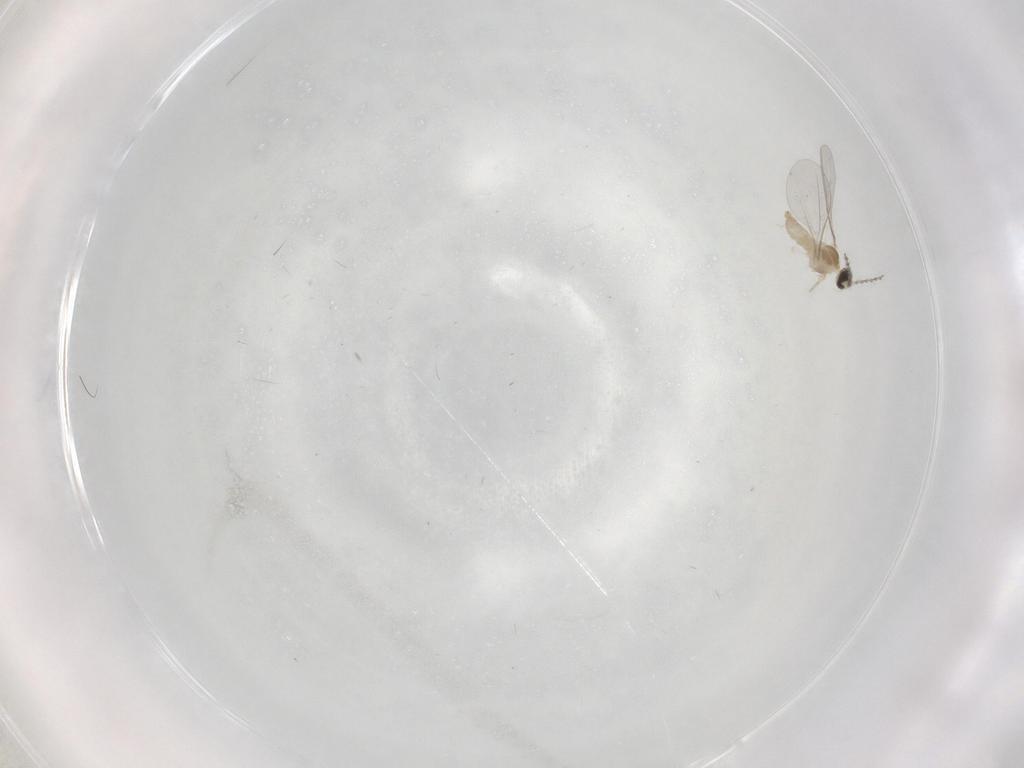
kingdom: Animalia
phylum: Arthropoda
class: Insecta
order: Diptera
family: Cecidomyiidae
